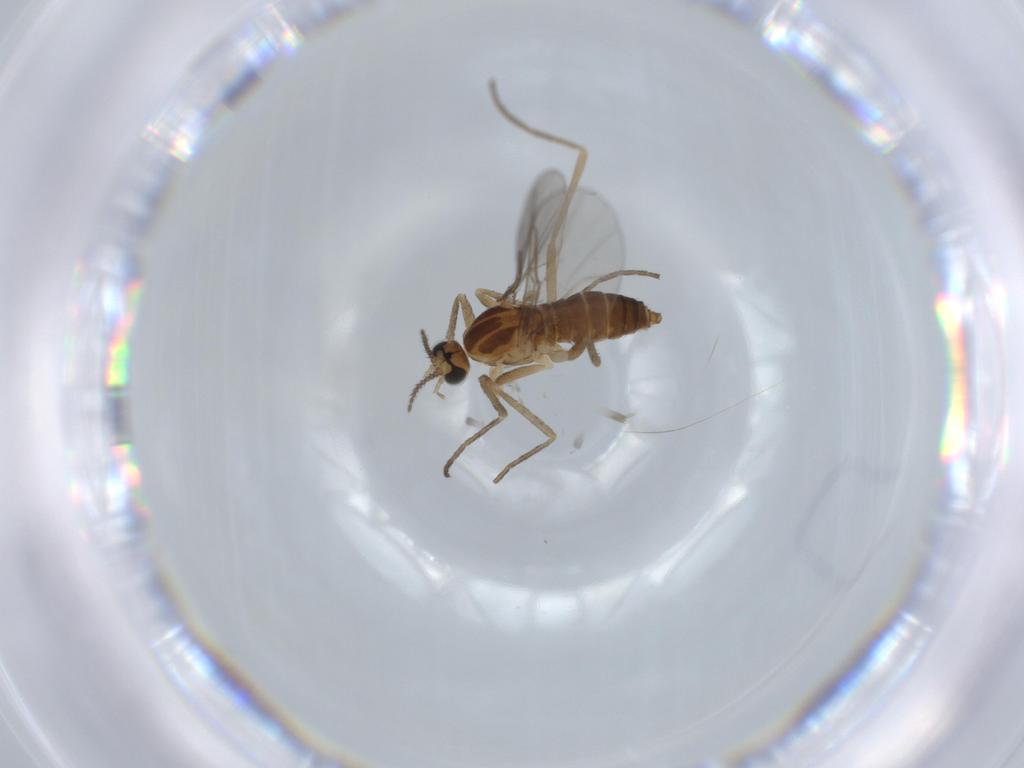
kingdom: Animalia
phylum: Arthropoda
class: Insecta
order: Diptera
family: Cecidomyiidae
